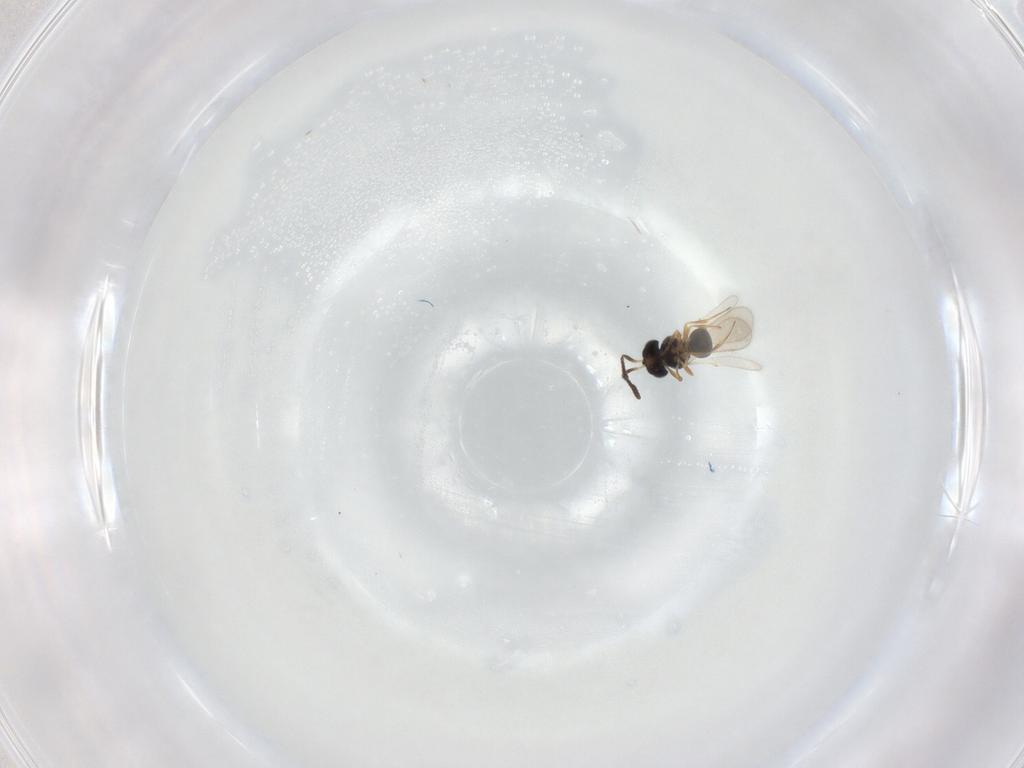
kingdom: Animalia
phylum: Arthropoda
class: Insecta
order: Hymenoptera
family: Scelionidae
